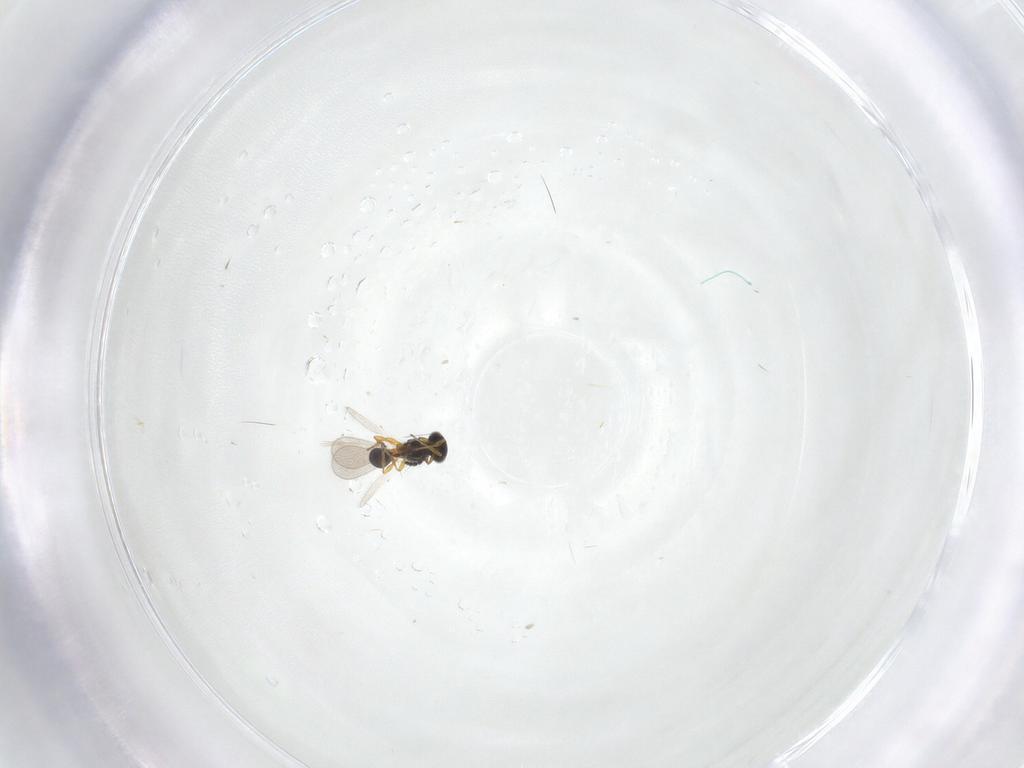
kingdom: Animalia
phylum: Arthropoda
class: Insecta
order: Hymenoptera
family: Platygastridae
